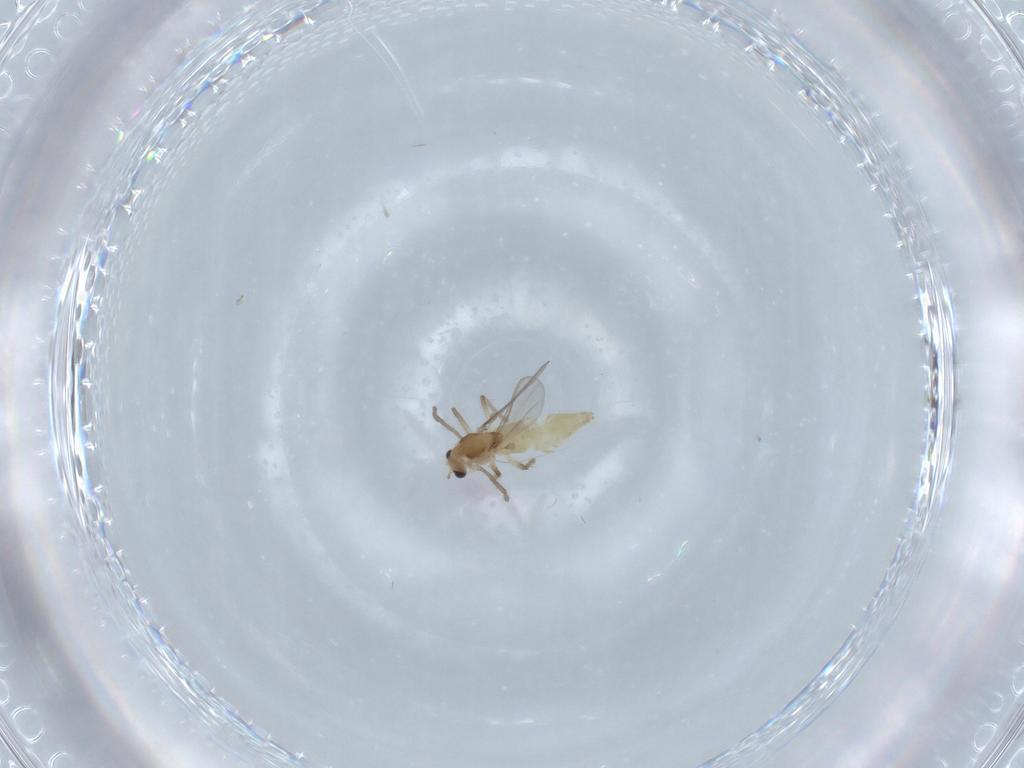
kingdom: Animalia
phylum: Arthropoda
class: Insecta
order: Diptera
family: Chironomidae
